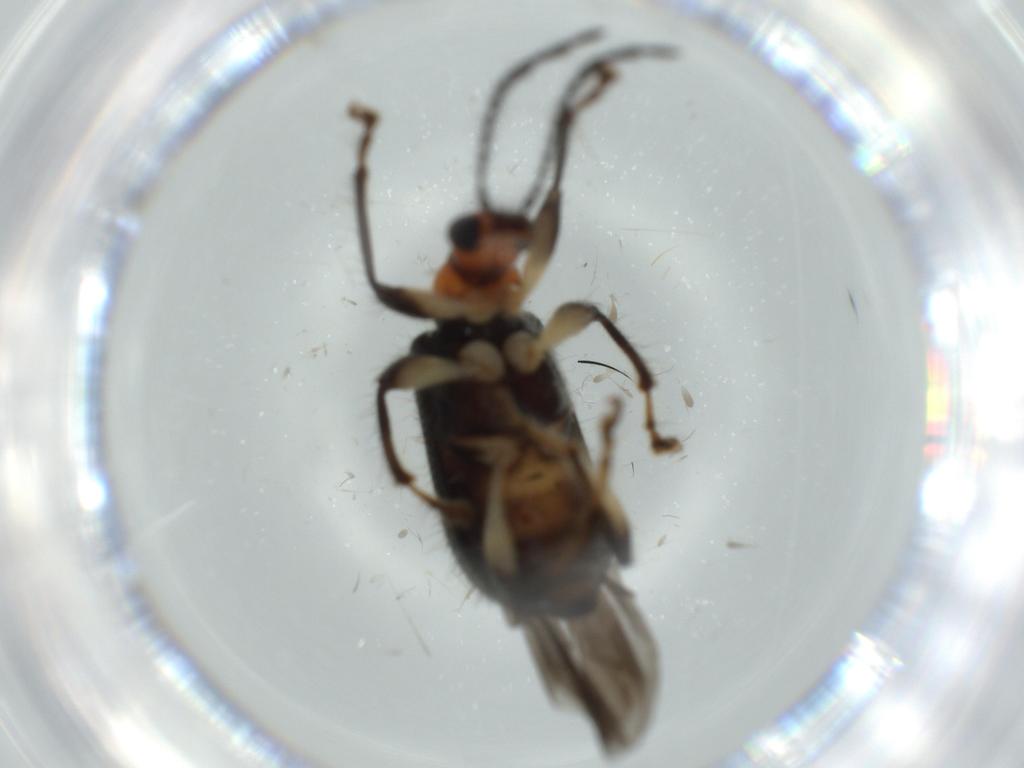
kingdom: Animalia
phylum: Arthropoda
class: Insecta
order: Coleoptera
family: Attelabidae
